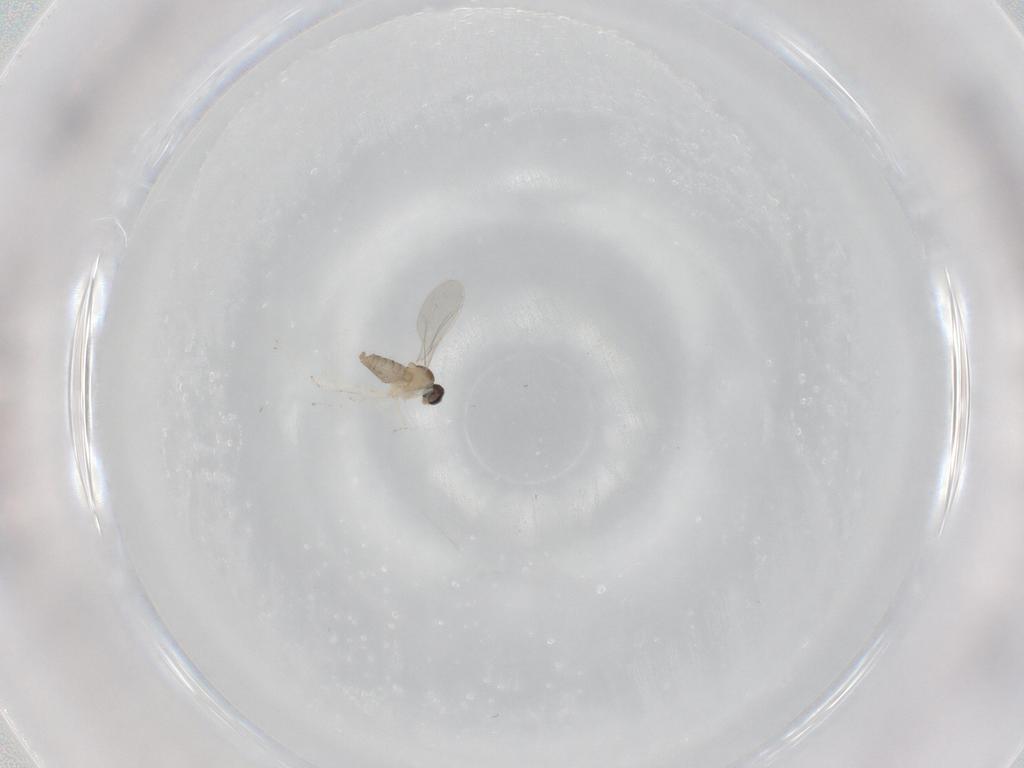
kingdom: Animalia
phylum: Arthropoda
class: Insecta
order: Diptera
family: Cecidomyiidae
